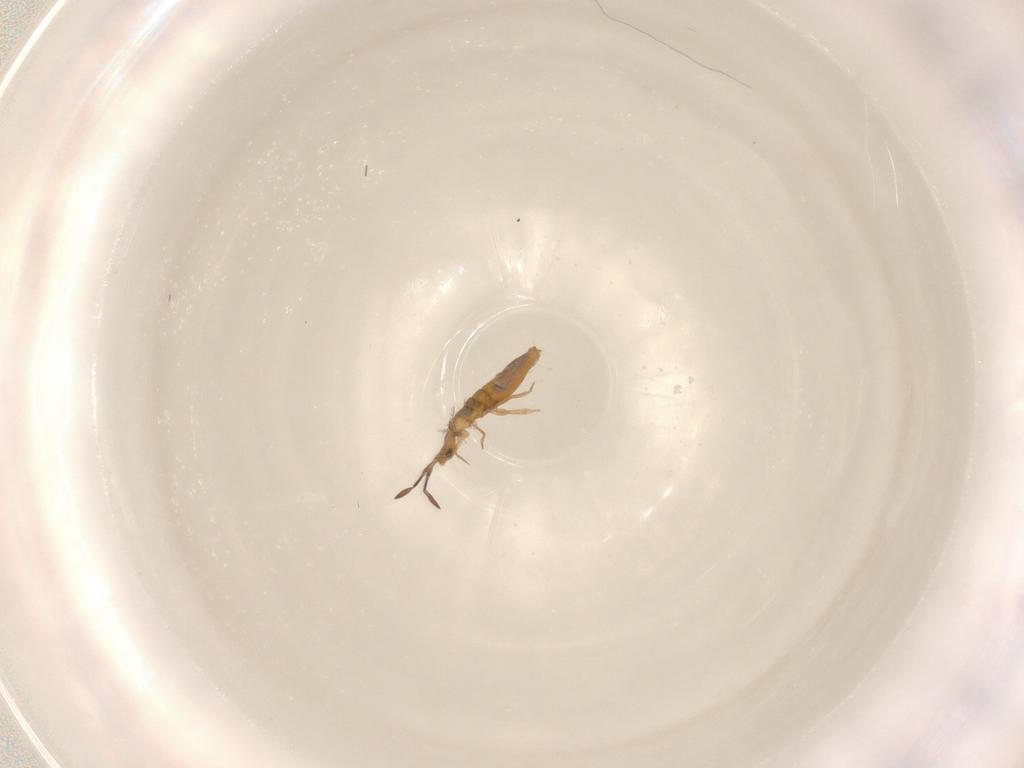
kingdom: Animalia
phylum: Arthropoda
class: Collembola
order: Entomobryomorpha
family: Entomobryidae
